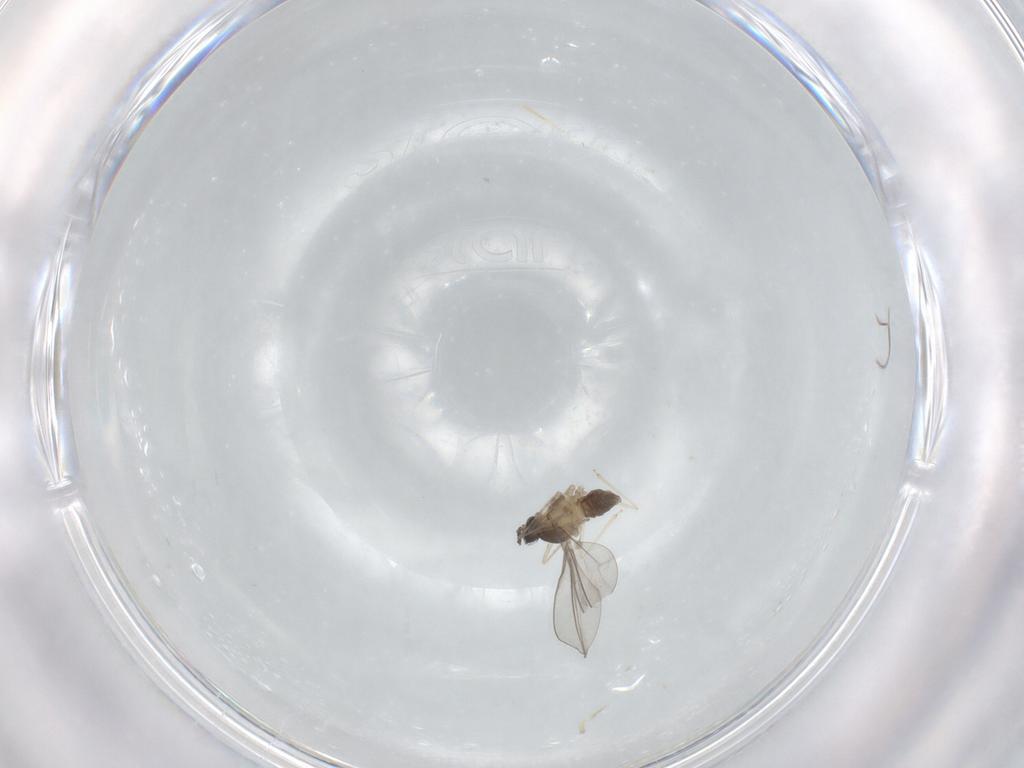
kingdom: Animalia
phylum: Arthropoda
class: Insecta
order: Diptera
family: Cecidomyiidae
